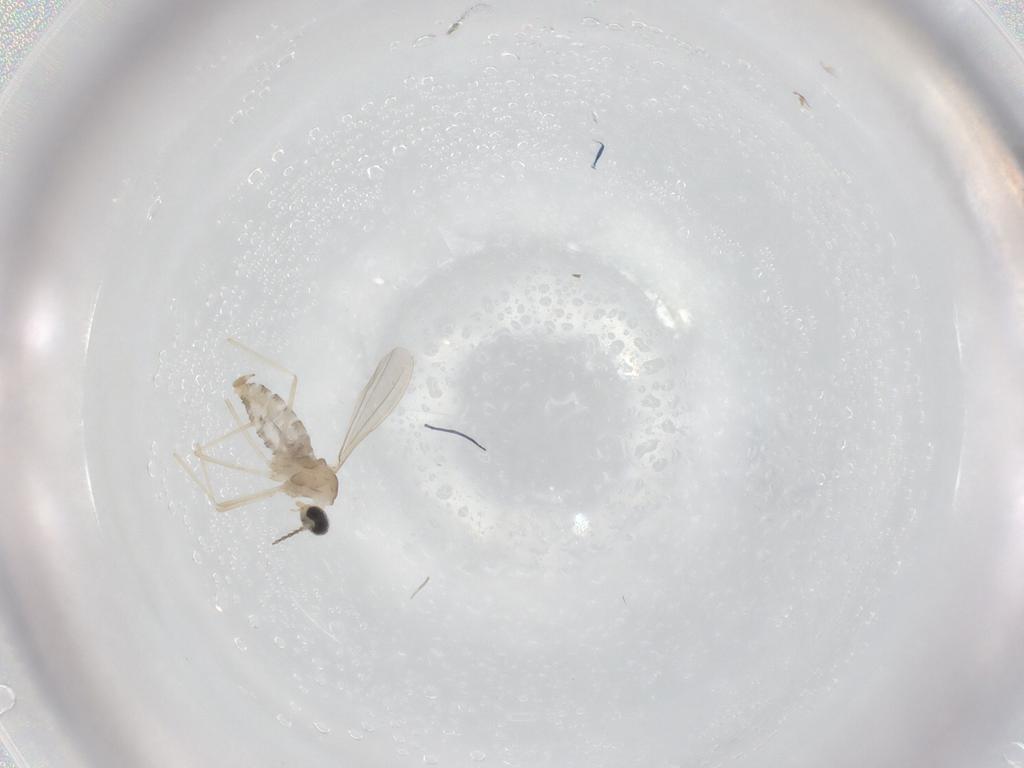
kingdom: Animalia
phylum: Arthropoda
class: Insecta
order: Diptera
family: Cecidomyiidae
